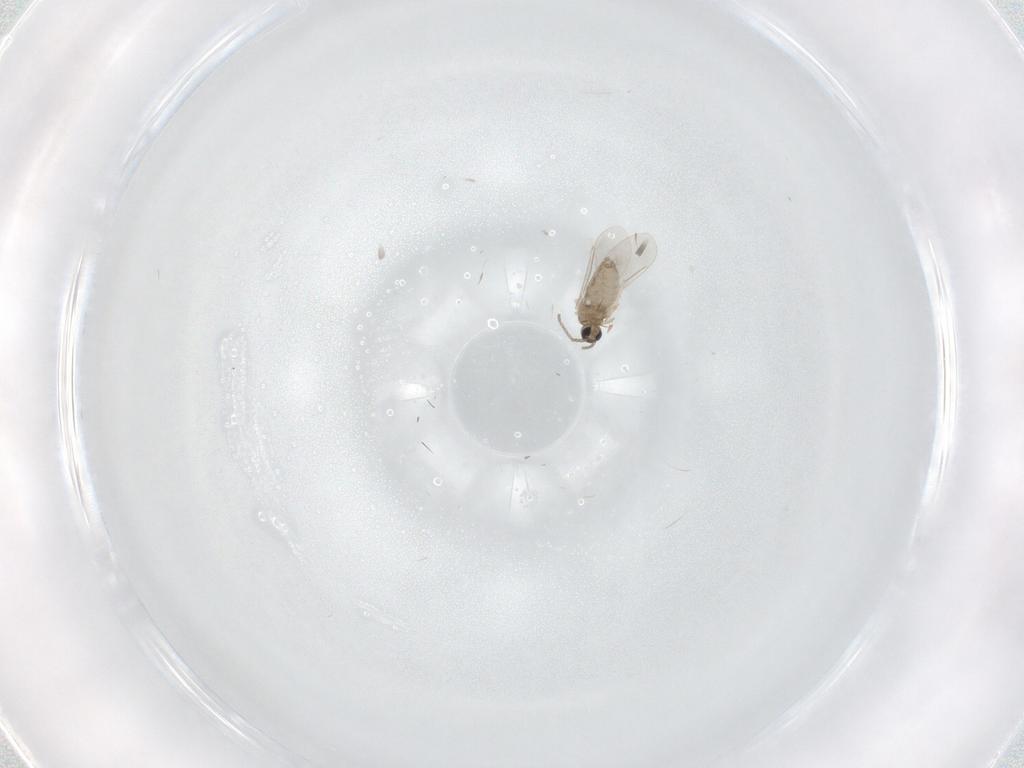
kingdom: Animalia
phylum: Arthropoda
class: Insecta
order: Diptera
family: Cecidomyiidae
